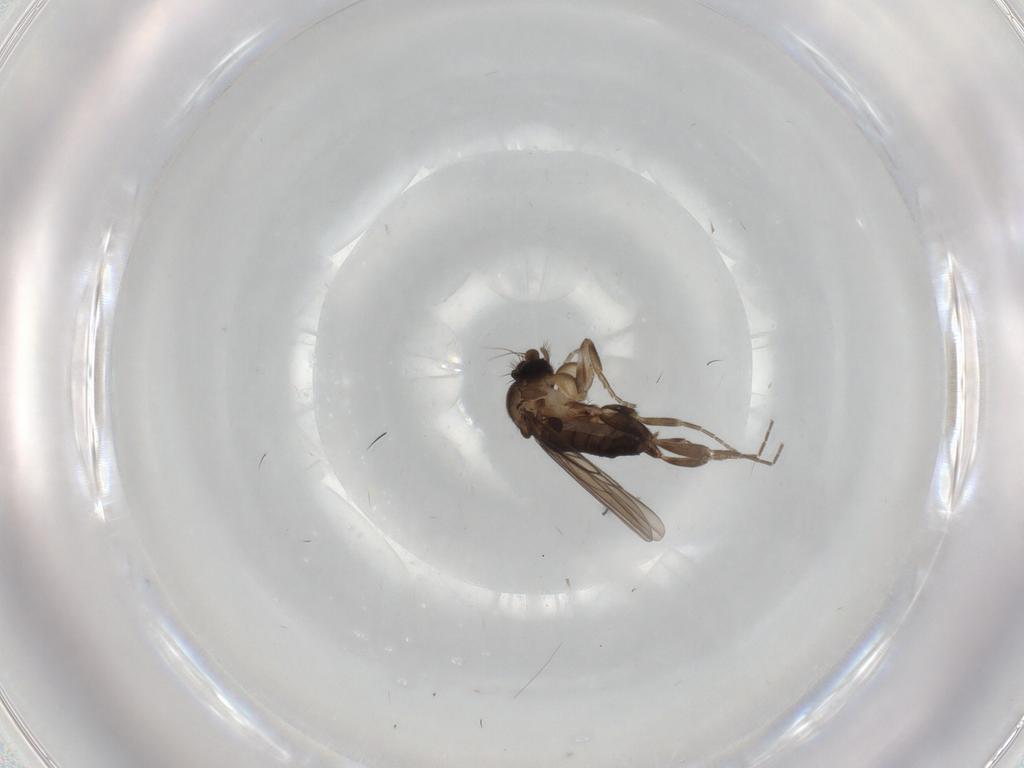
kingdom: Animalia
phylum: Arthropoda
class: Insecta
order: Diptera
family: Phoridae
